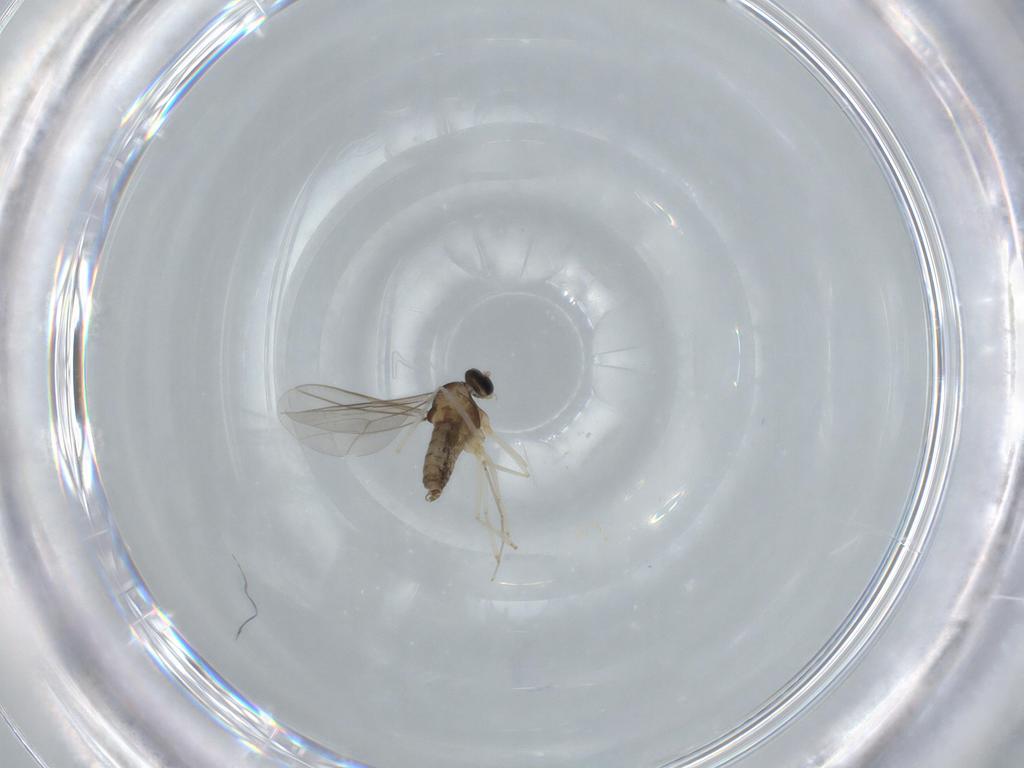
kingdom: Animalia
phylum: Arthropoda
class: Insecta
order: Diptera
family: Cecidomyiidae
